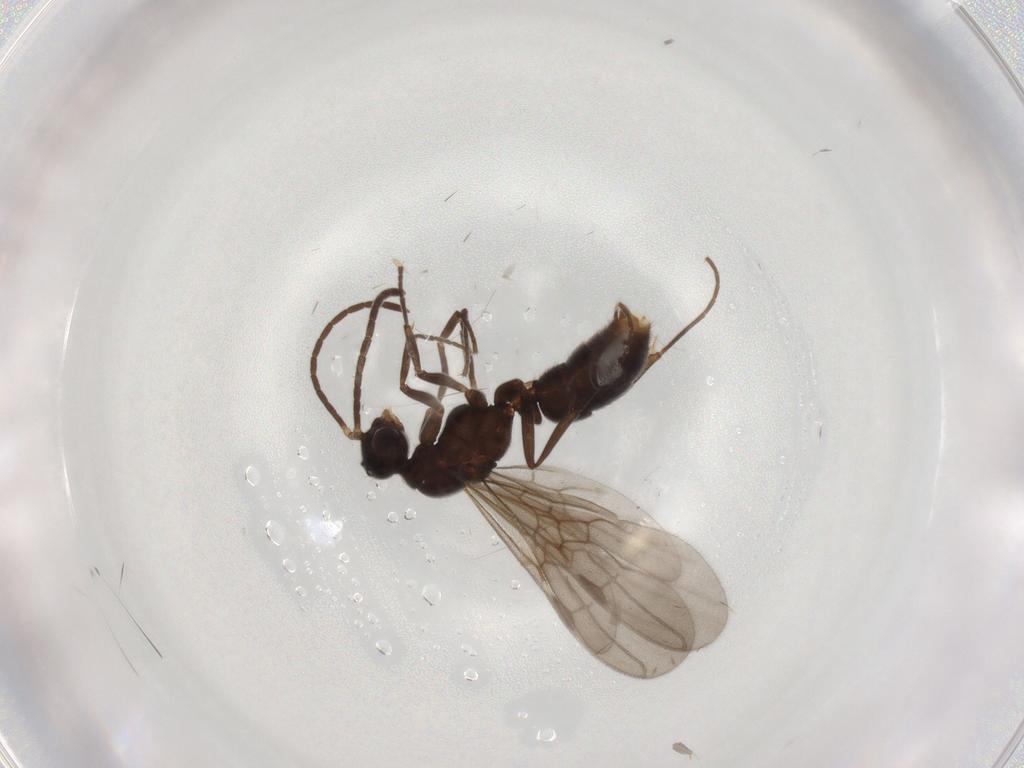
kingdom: Animalia
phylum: Arthropoda
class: Insecta
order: Hymenoptera
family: Formicidae
